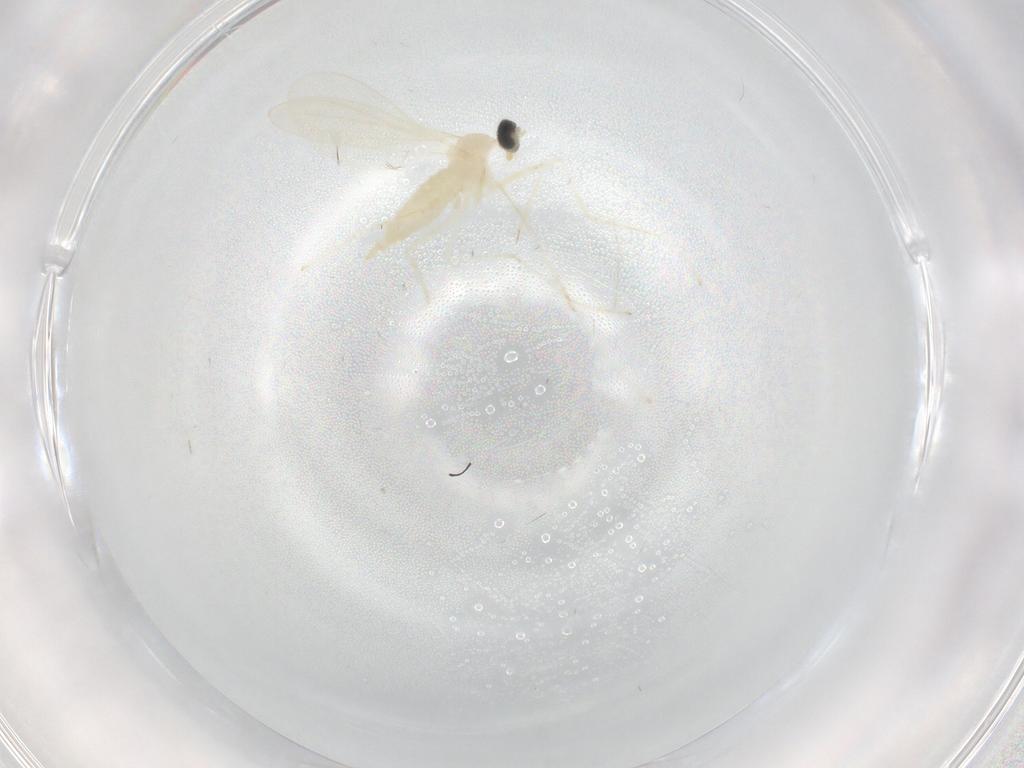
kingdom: Animalia
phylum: Arthropoda
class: Insecta
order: Diptera
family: Cecidomyiidae
